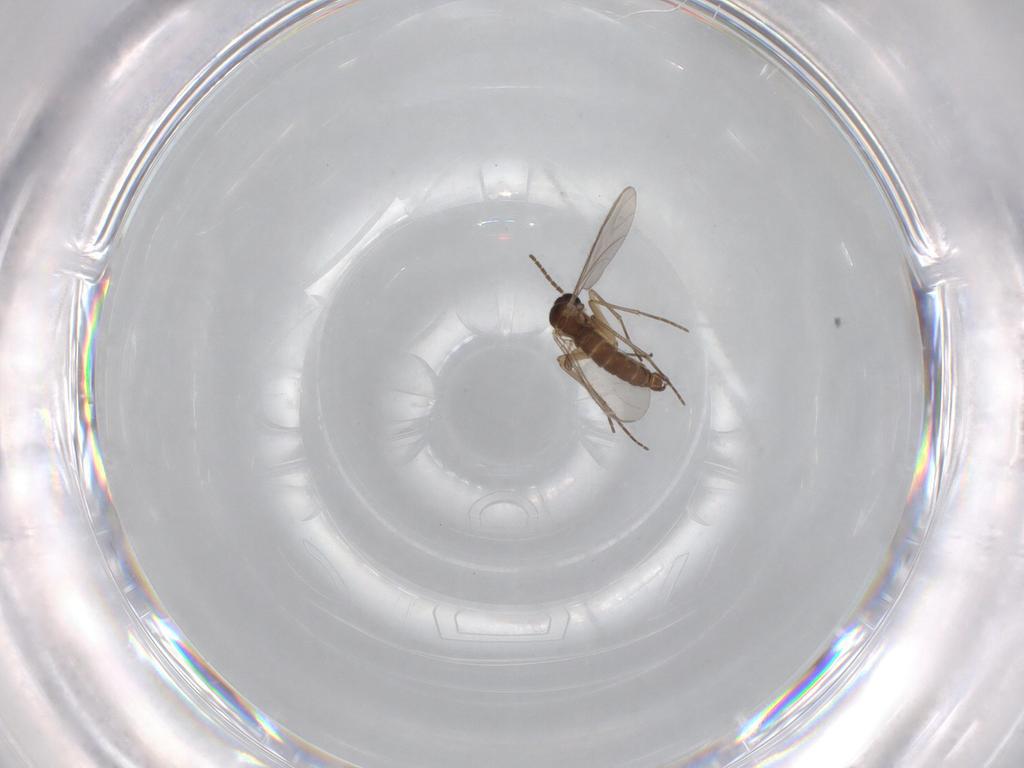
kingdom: Animalia
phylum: Arthropoda
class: Insecta
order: Diptera
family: Sciaridae
